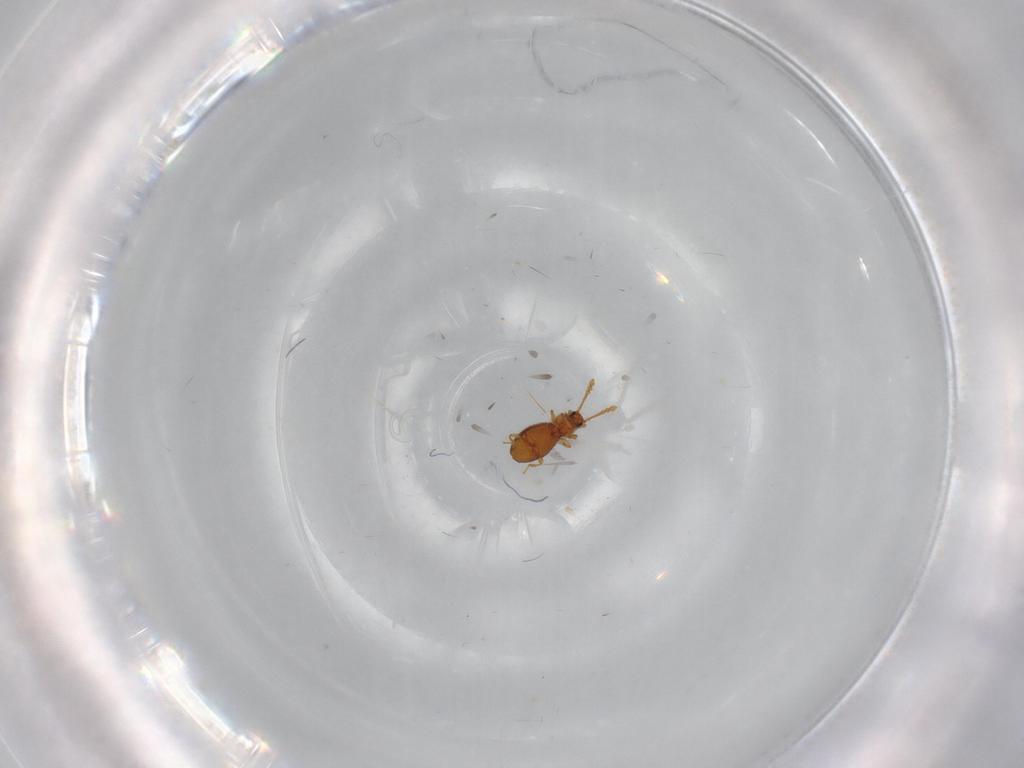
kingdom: Animalia
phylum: Arthropoda
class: Insecta
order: Coleoptera
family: Staphylinidae
